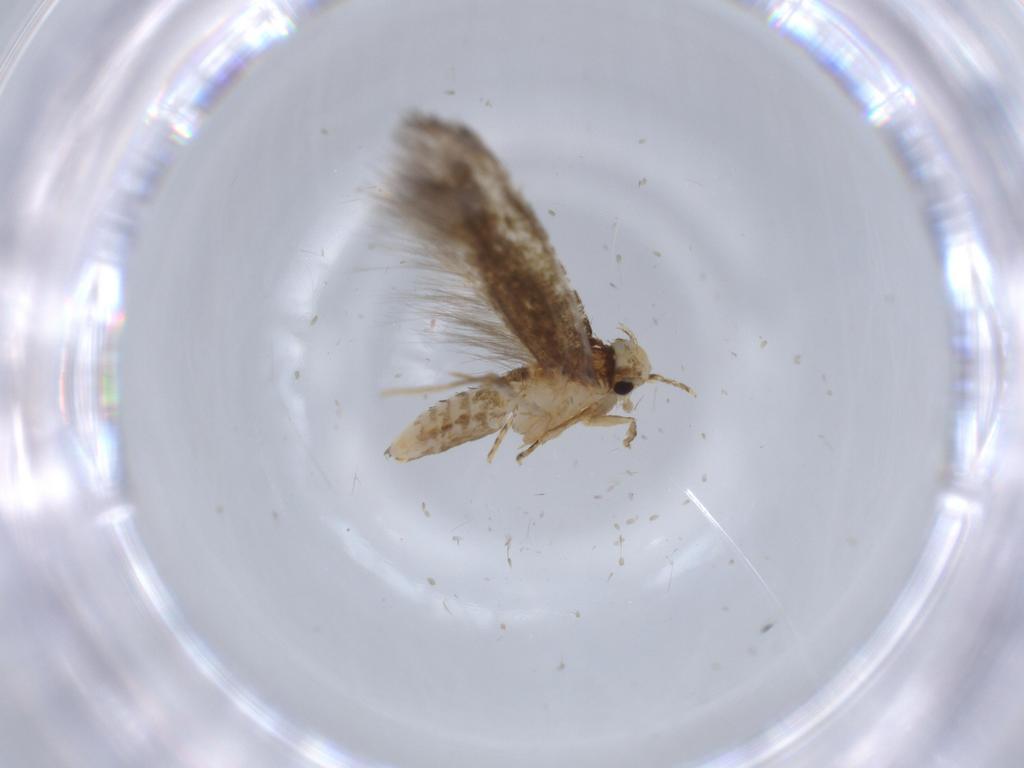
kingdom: Animalia
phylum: Arthropoda
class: Insecta
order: Lepidoptera
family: Tineidae
